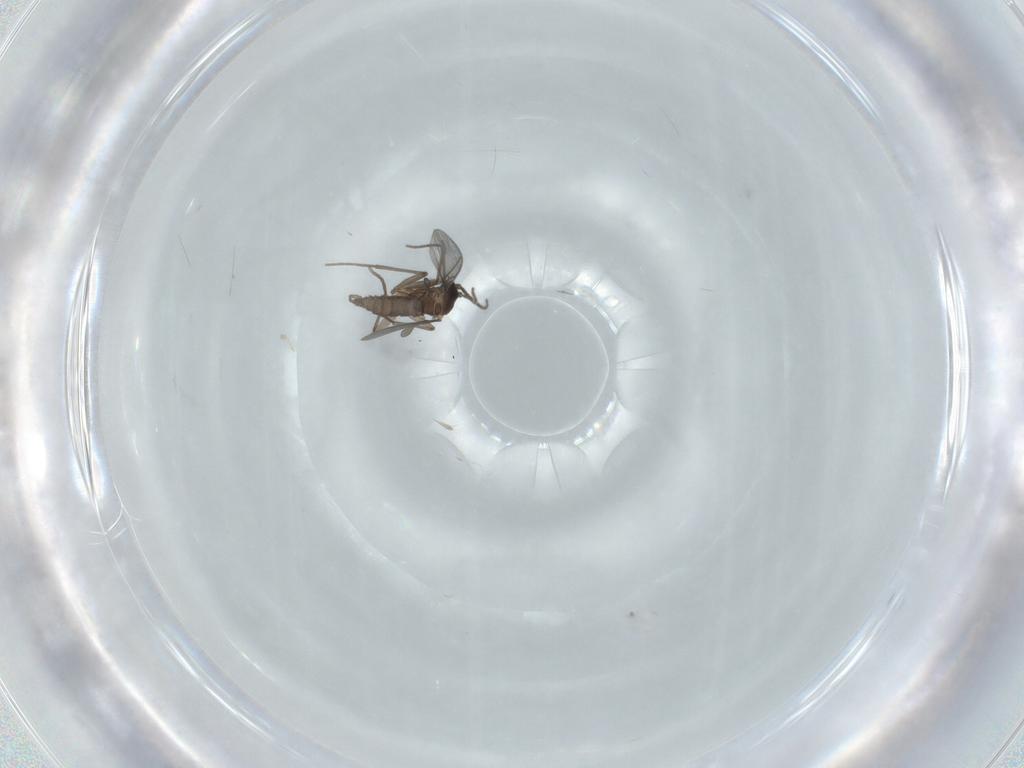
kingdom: Animalia
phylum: Arthropoda
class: Insecta
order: Diptera
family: Sciaridae
